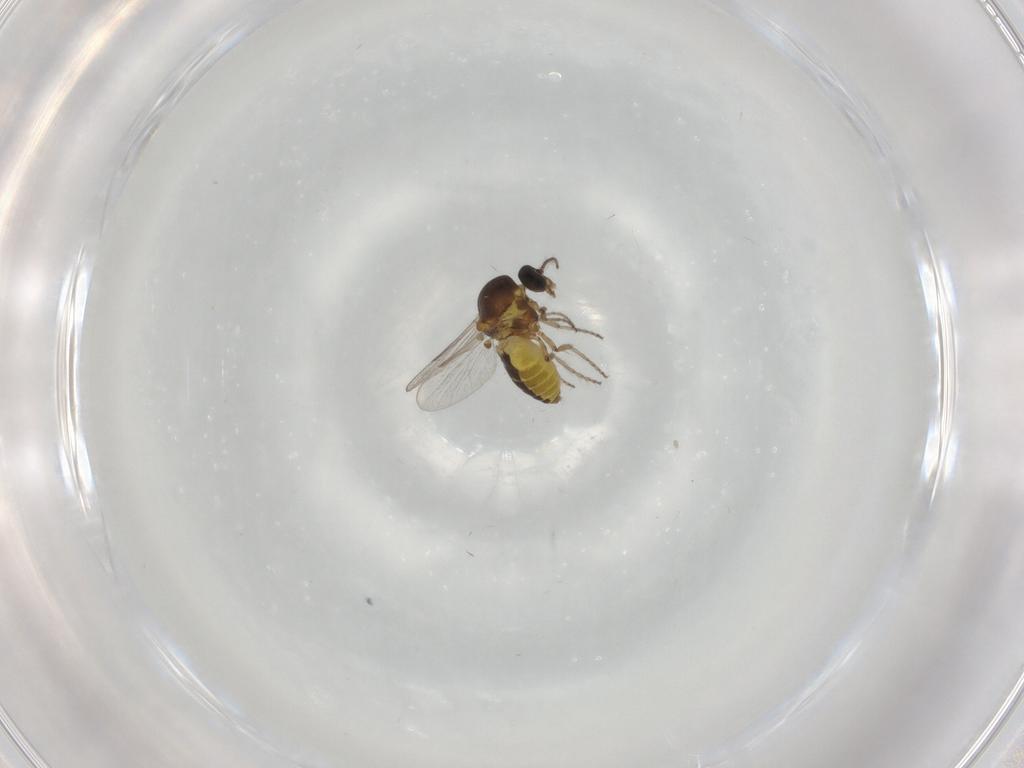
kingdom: Animalia
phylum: Arthropoda
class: Insecta
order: Diptera
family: Ceratopogonidae
